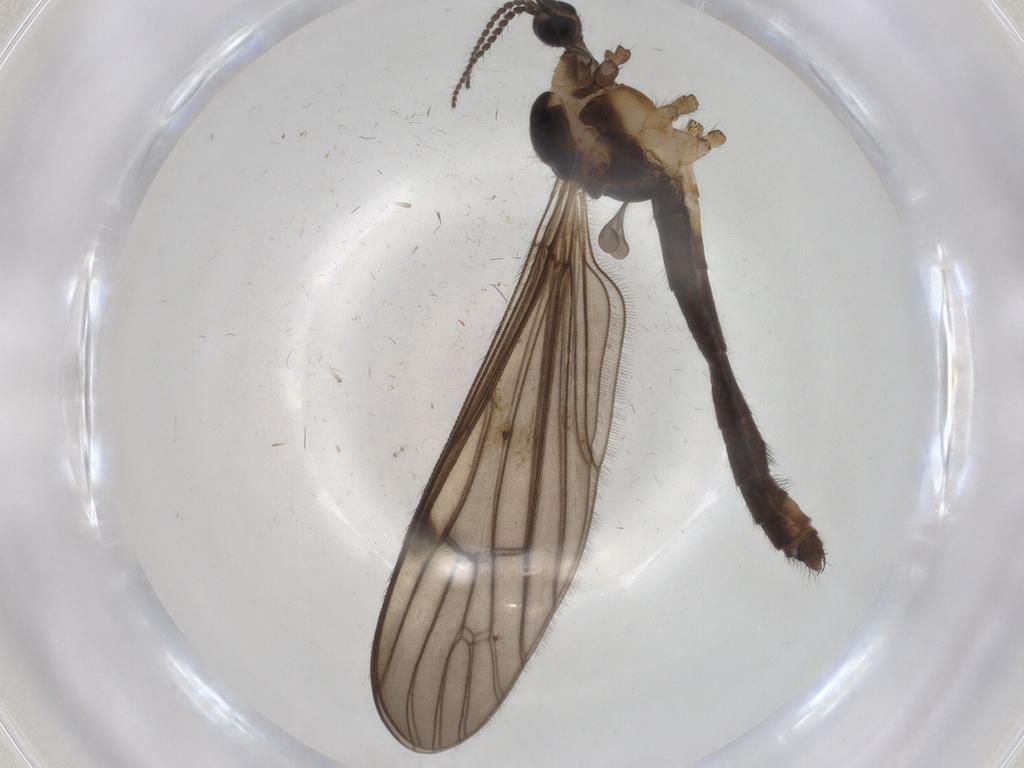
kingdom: Animalia
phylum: Arthropoda
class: Insecta
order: Diptera
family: Limoniidae
